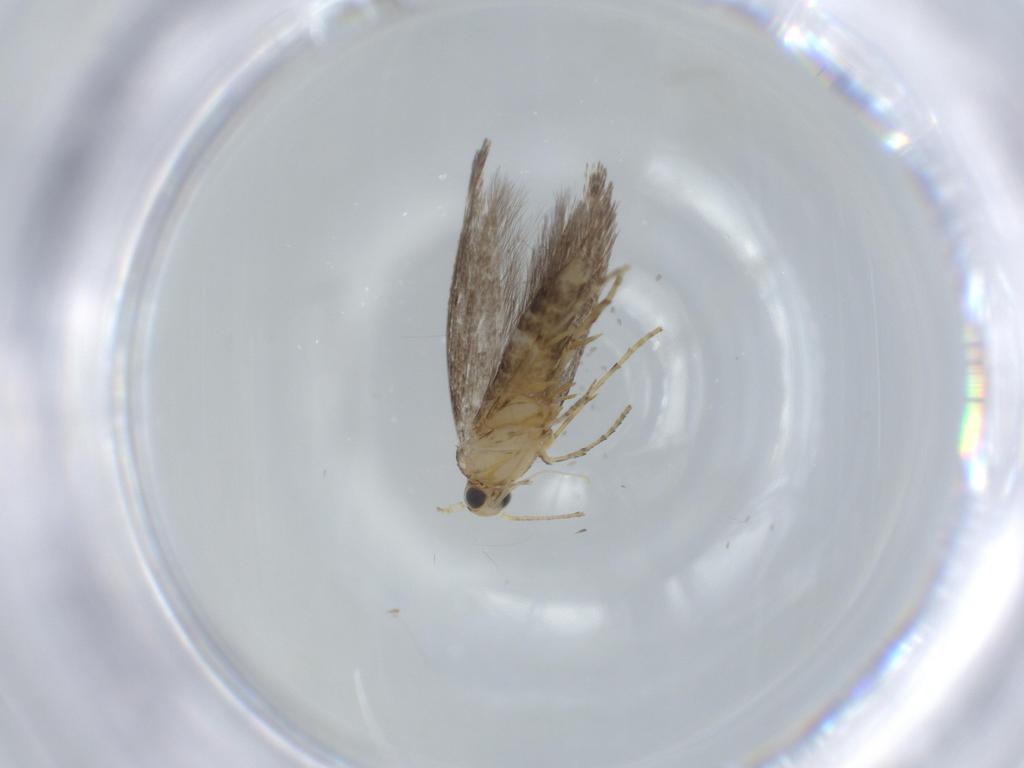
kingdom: Animalia
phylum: Arthropoda
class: Insecta
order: Lepidoptera
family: Argyresthiidae
